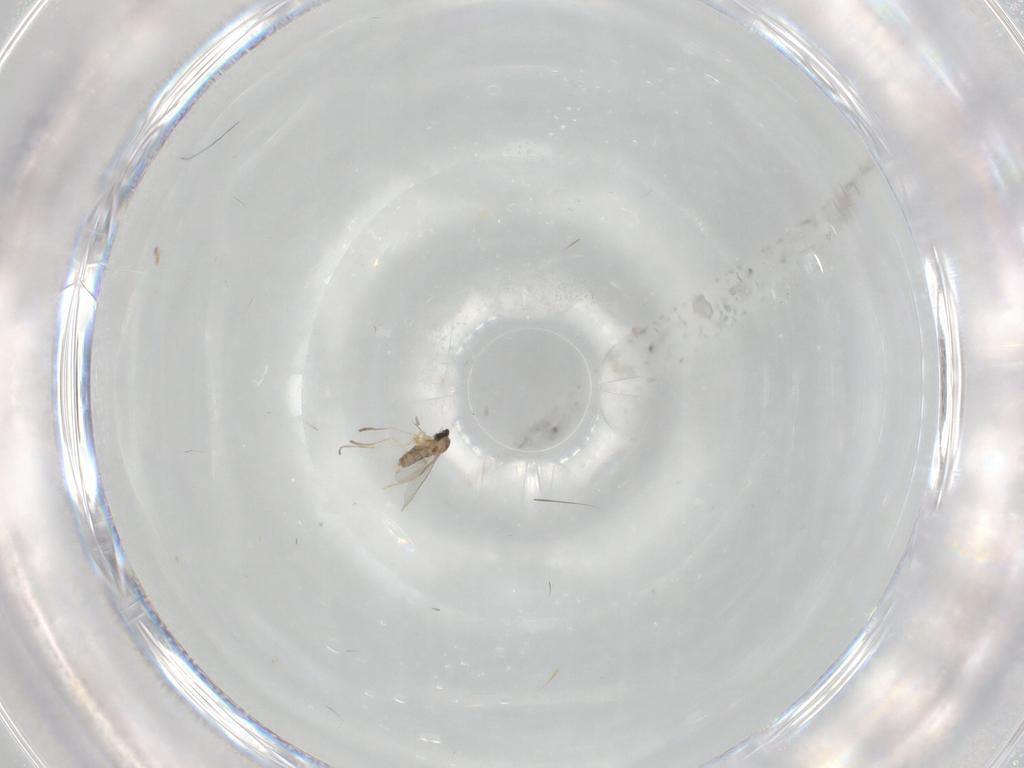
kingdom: Animalia
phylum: Arthropoda
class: Insecta
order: Diptera
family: Cecidomyiidae
